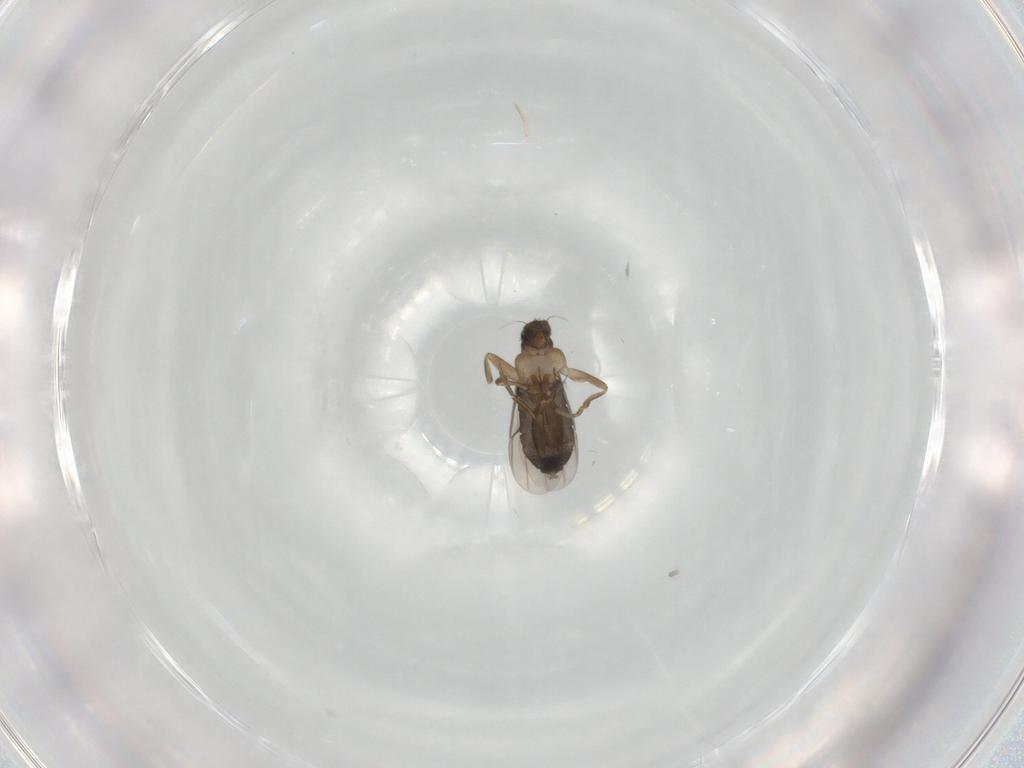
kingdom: Animalia
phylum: Arthropoda
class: Insecta
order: Diptera
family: Phoridae
